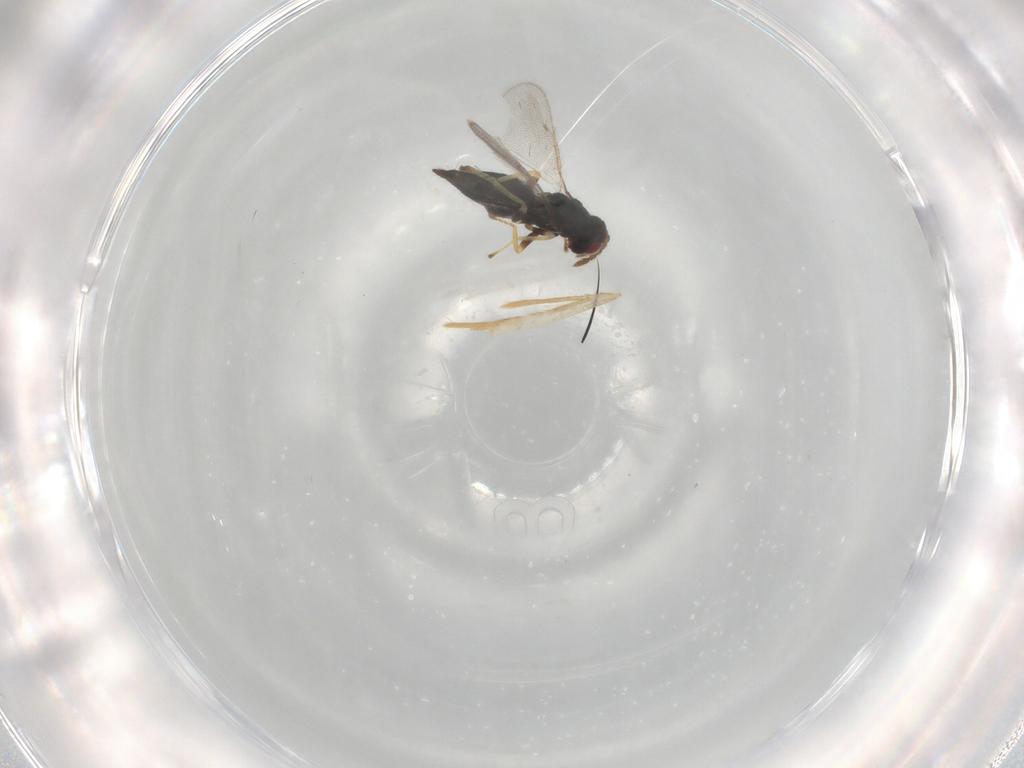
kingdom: Animalia
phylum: Arthropoda
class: Insecta
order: Hymenoptera
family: Eulophidae
